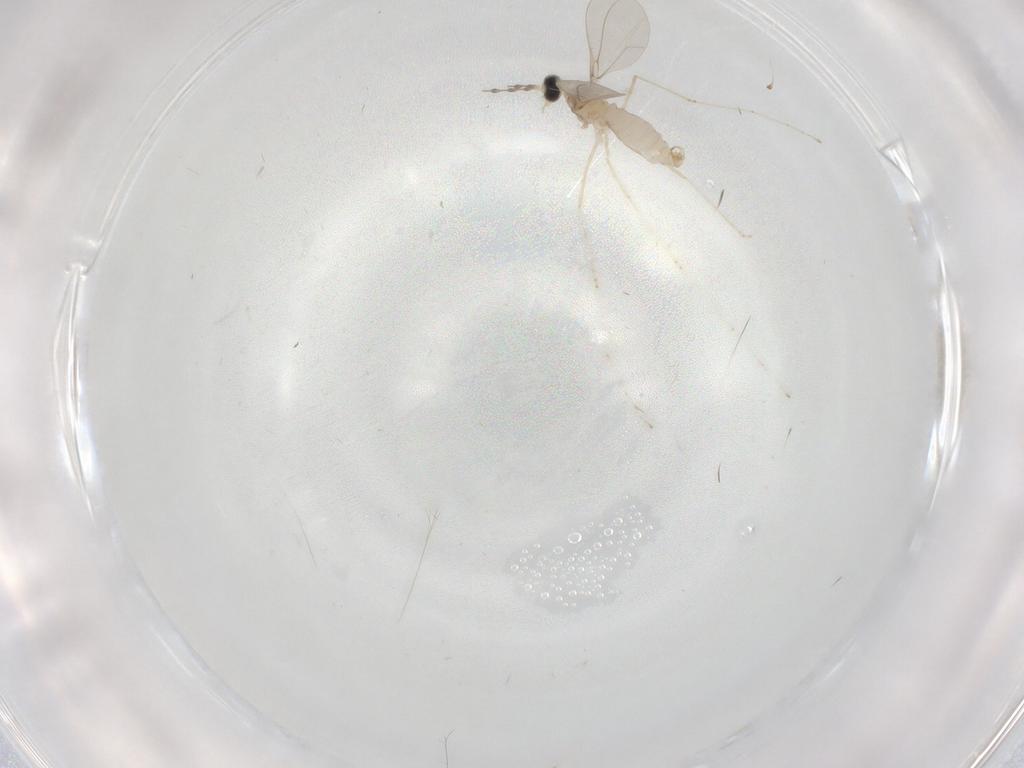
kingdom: Animalia
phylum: Arthropoda
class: Insecta
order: Diptera
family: Cecidomyiidae
